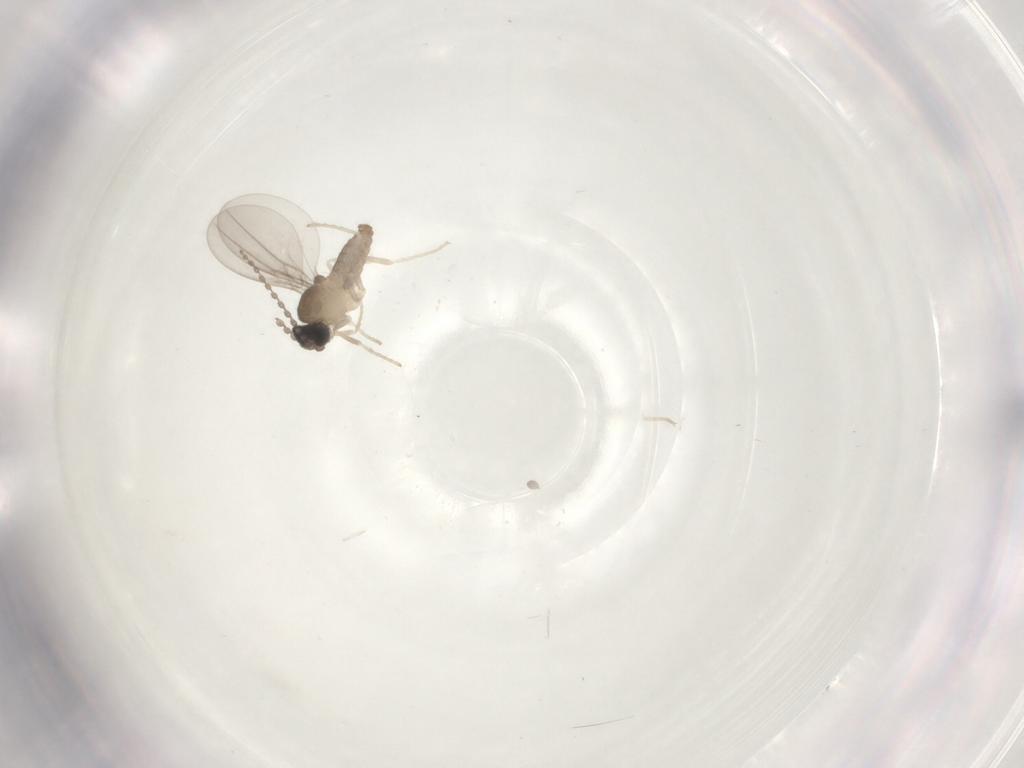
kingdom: Animalia
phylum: Arthropoda
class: Insecta
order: Diptera
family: Cecidomyiidae
